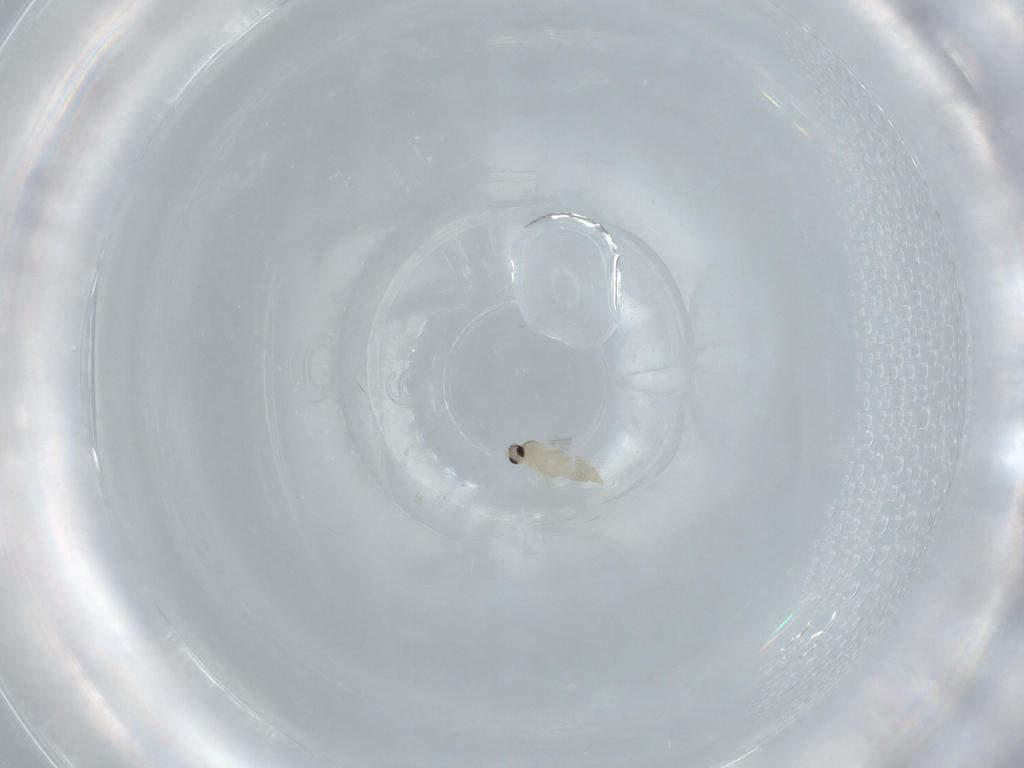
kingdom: Animalia
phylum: Arthropoda
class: Insecta
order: Diptera
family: Cecidomyiidae
